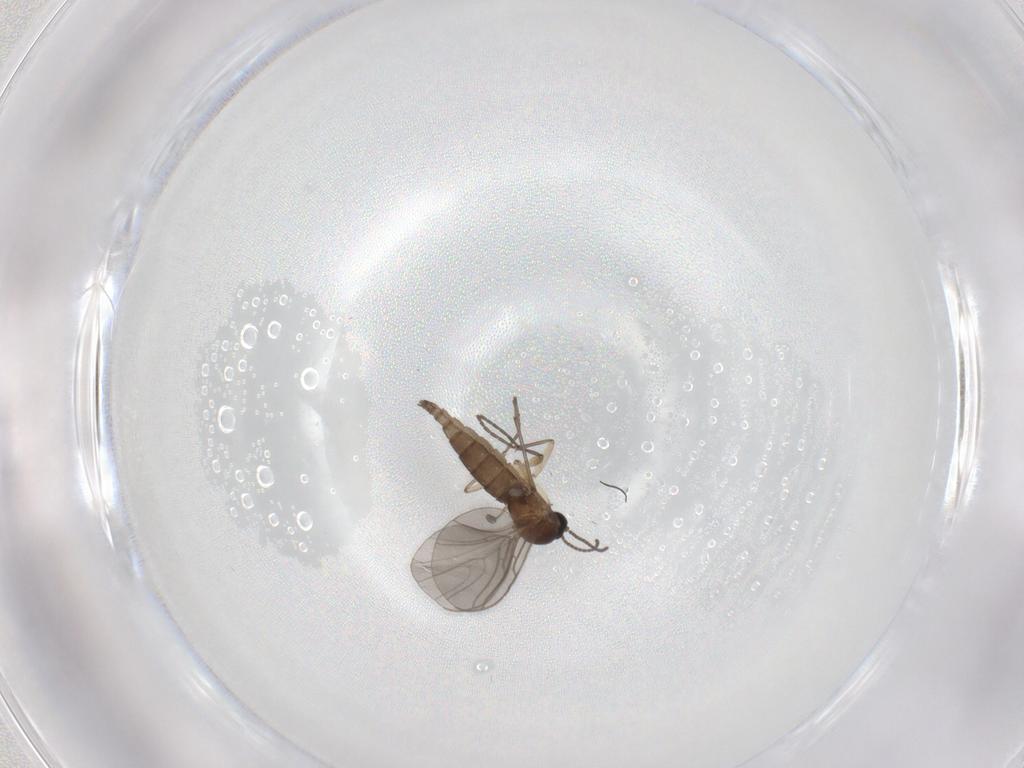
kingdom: Animalia
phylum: Arthropoda
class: Insecta
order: Diptera
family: Sciaridae
